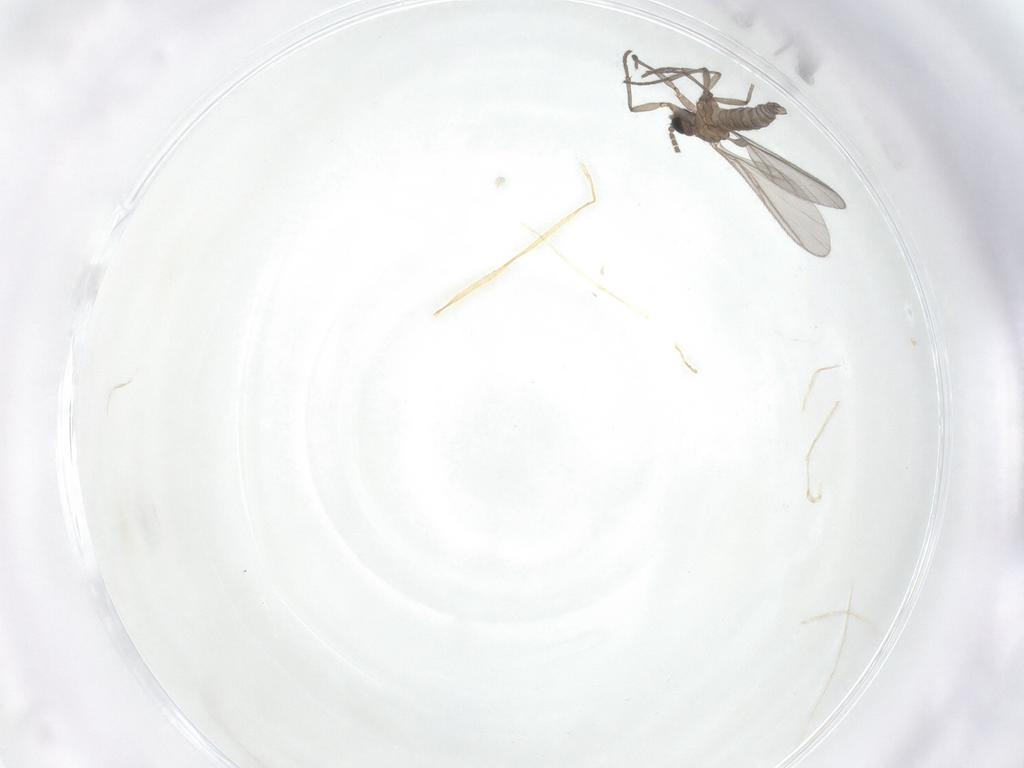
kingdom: Animalia
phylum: Arthropoda
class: Insecta
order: Diptera
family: Sciaridae
